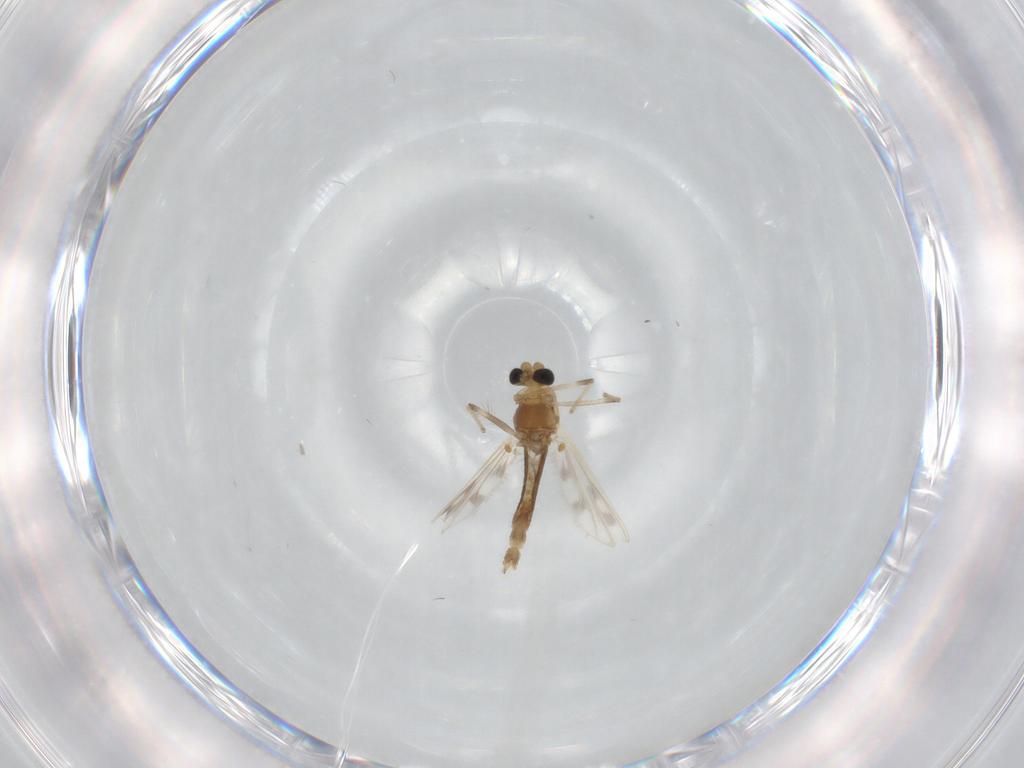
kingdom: Animalia
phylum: Arthropoda
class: Insecta
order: Diptera
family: Chironomidae
